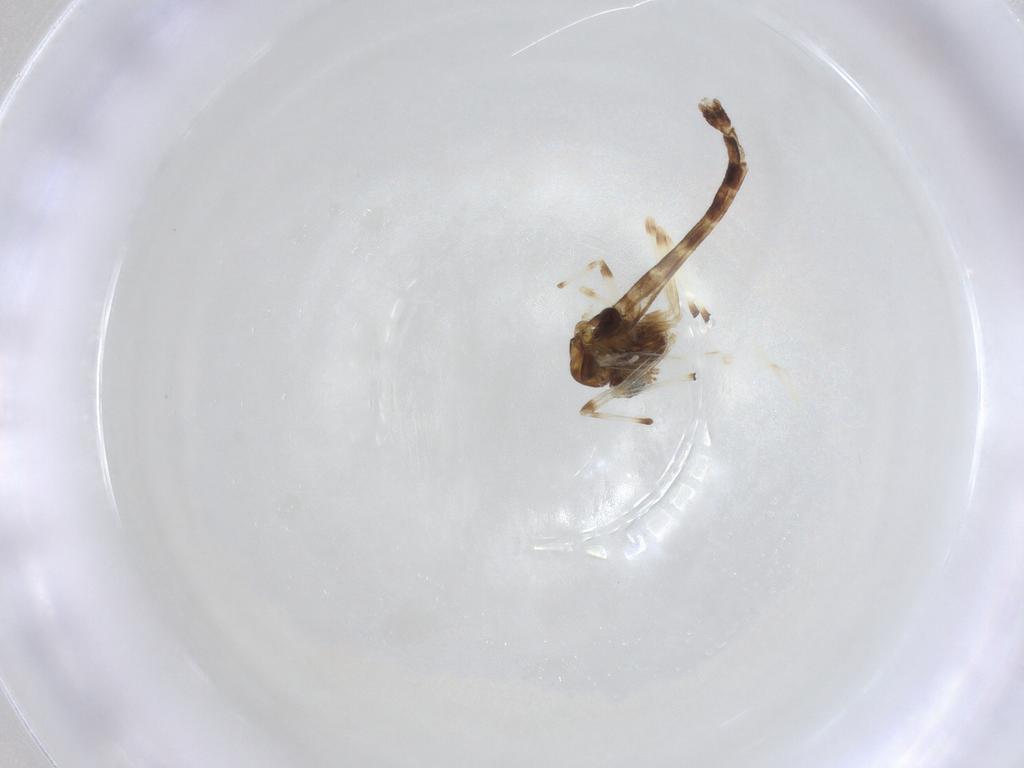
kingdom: Animalia
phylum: Arthropoda
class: Insecta
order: Diptera
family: Chironomidae
